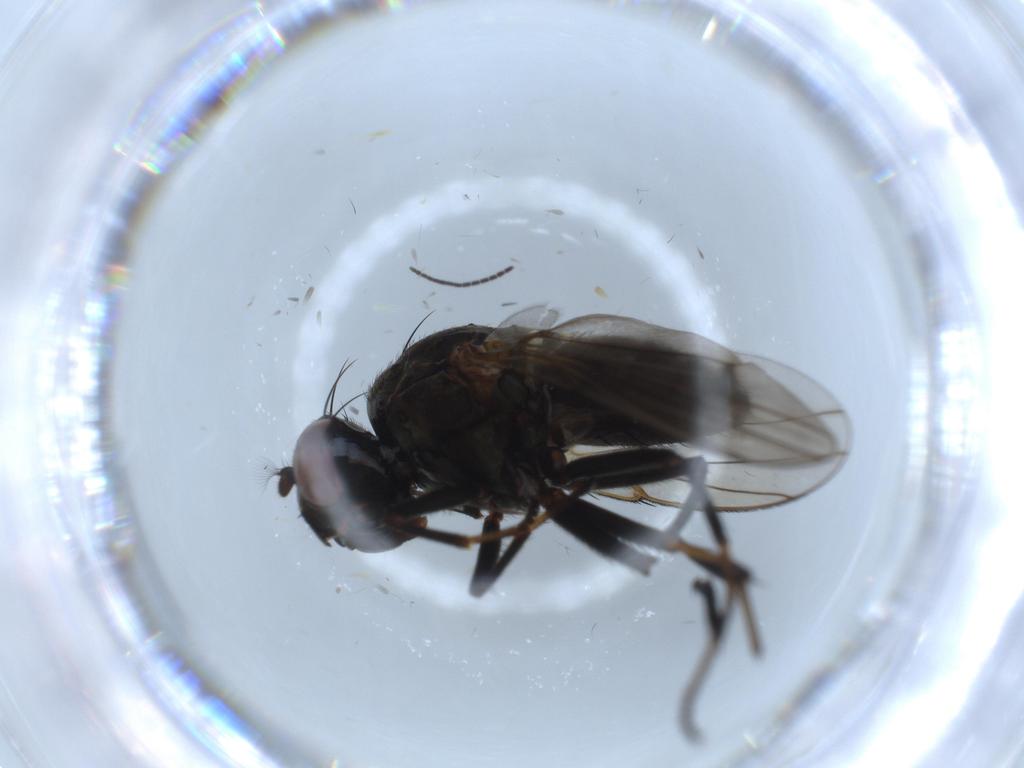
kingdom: Animalia
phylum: Arthropoda
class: Insecta
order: Diptera
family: Ephydridae
